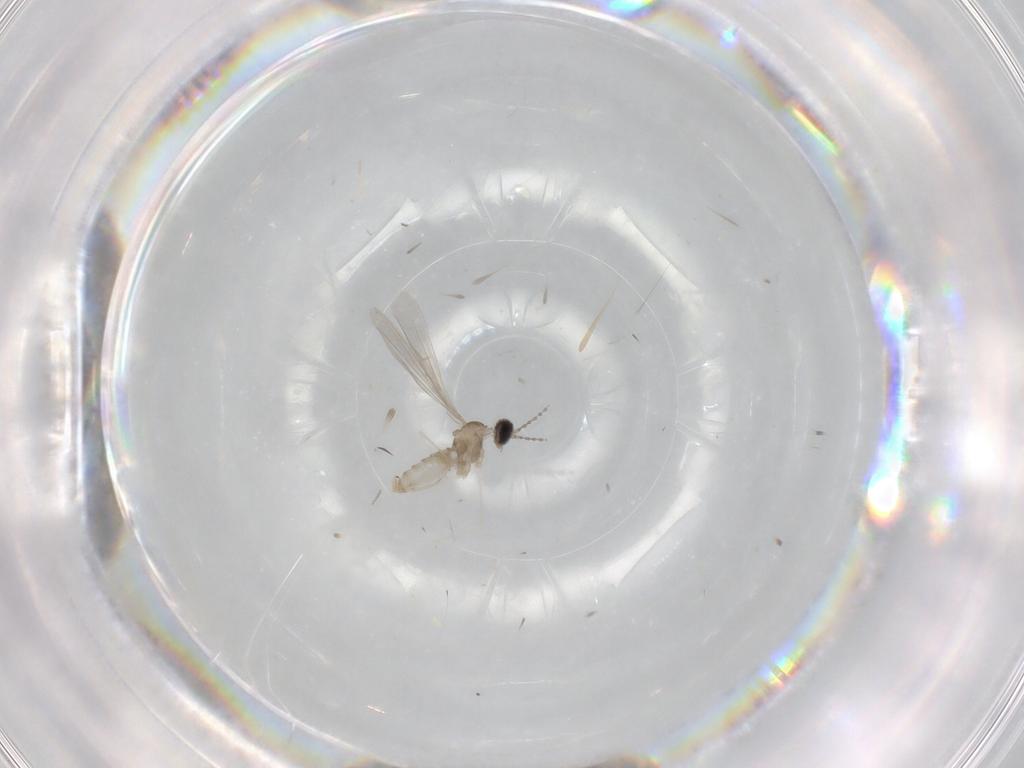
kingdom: Animalia
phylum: Arthropoda
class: Insecta
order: Diptera
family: Cecidomyiidae
